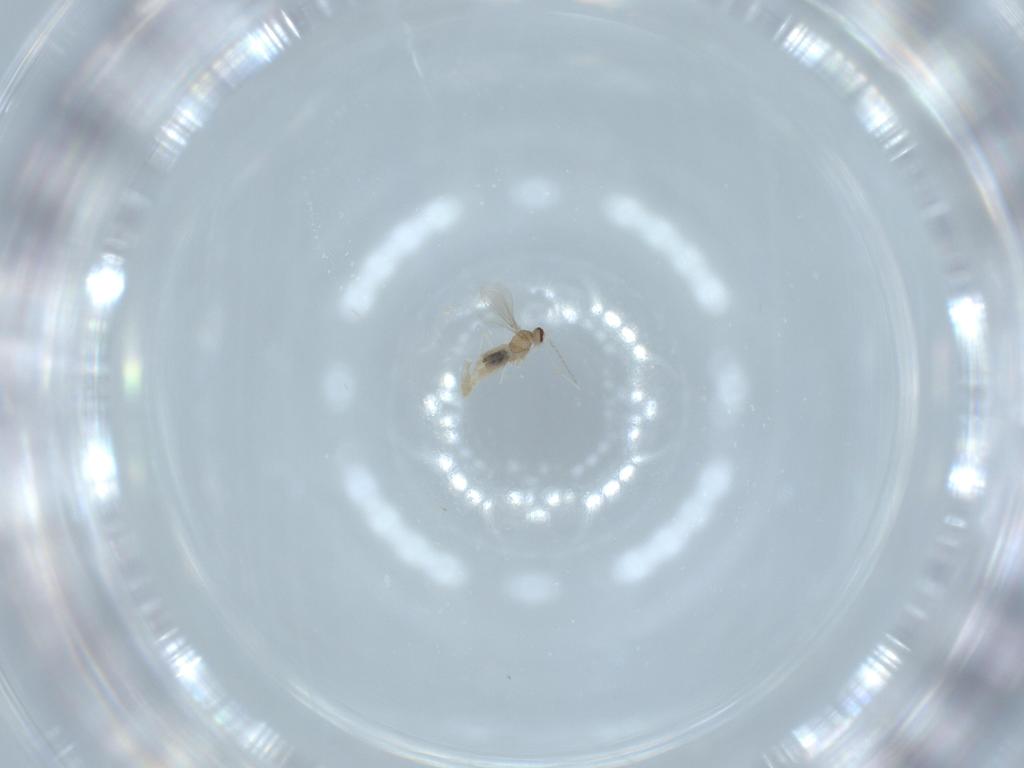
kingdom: Animalia
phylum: Arthropoda
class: Insecta
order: Diptera
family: Cecidomyiidae
